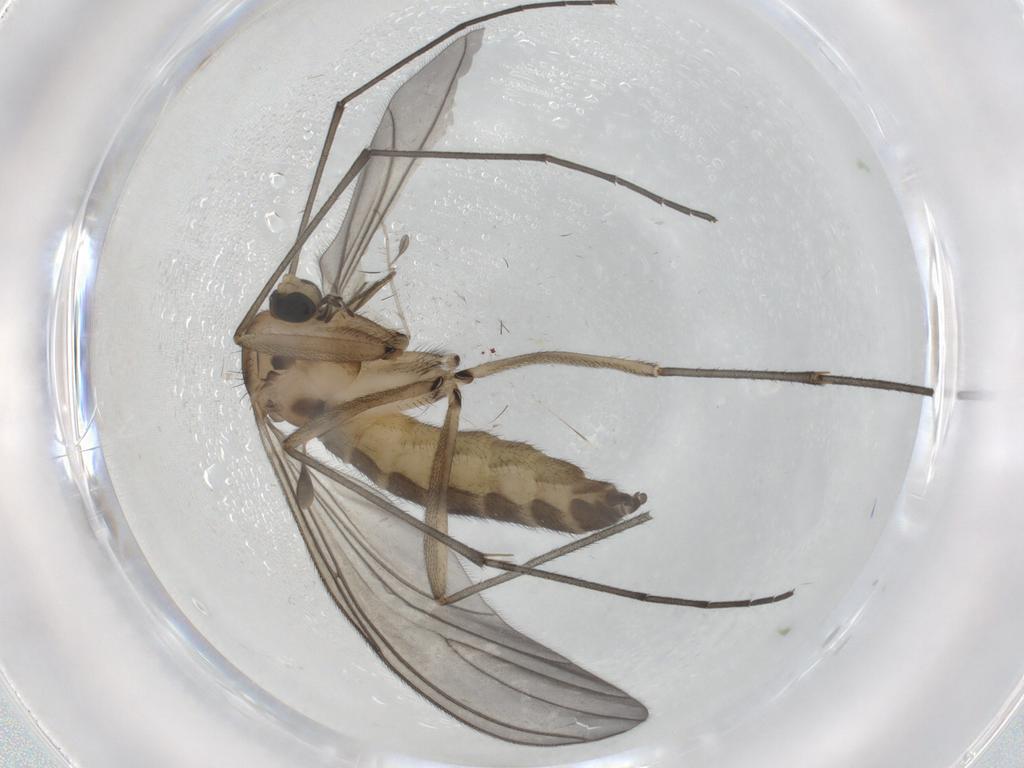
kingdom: Animalia
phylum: Arthropoda
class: Insecta
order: Diptera
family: Sciaridae
